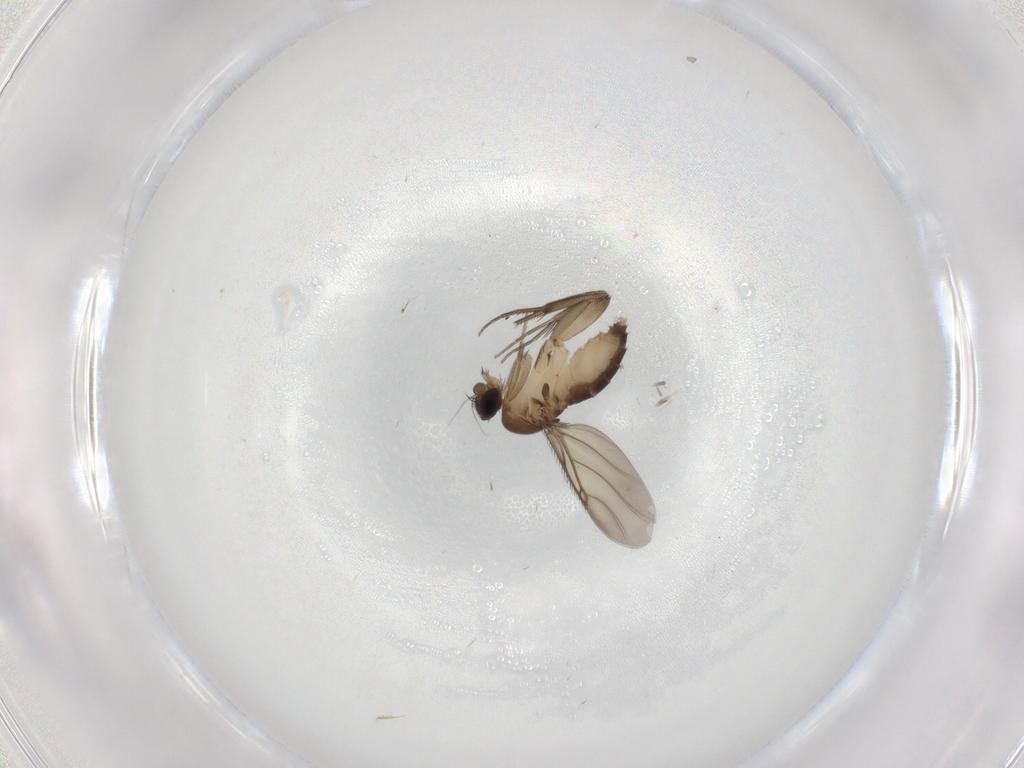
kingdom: Animalia
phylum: Arthropoda
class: Insecta
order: Diptera
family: Phoridae
